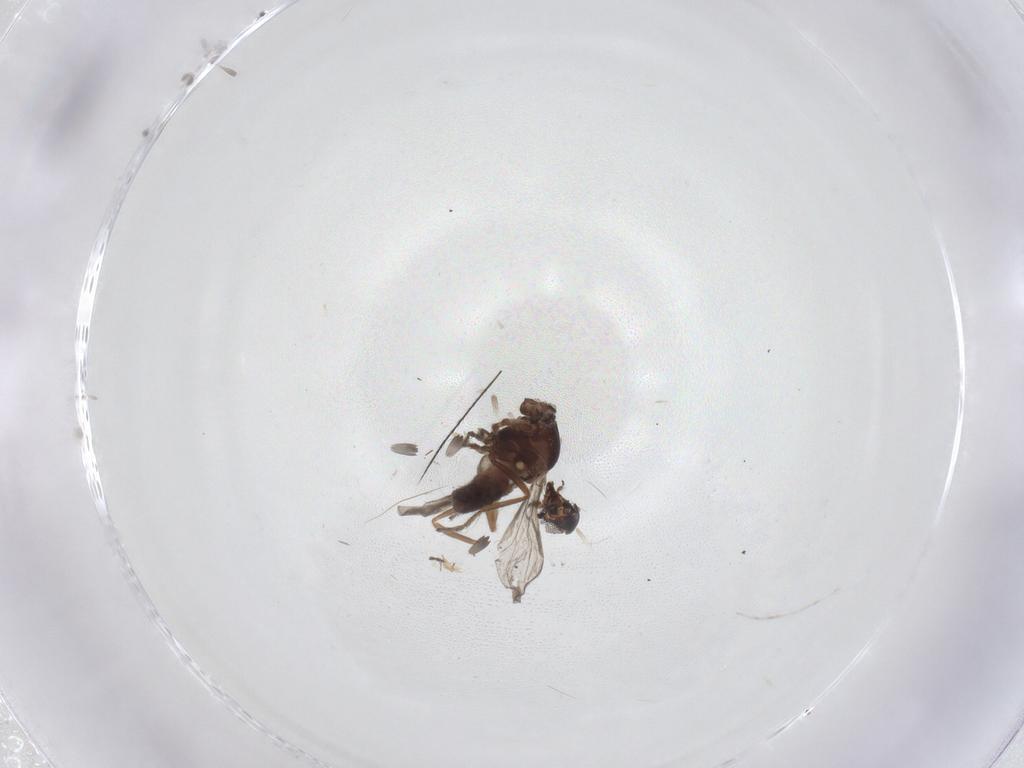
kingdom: Animalia
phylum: Arthropoda
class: Insecta
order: Diptera
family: Ceratopogonidae
